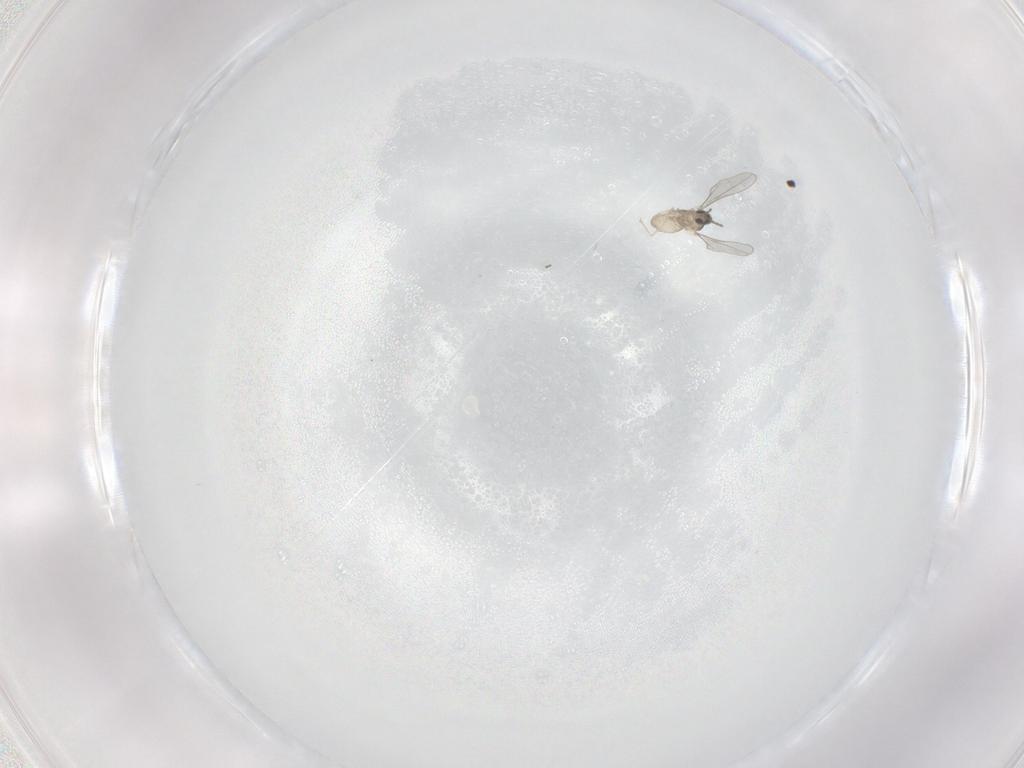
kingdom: Animalia
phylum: Arthropoda
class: Insecta
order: Diptera
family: Cecidomyiidae
